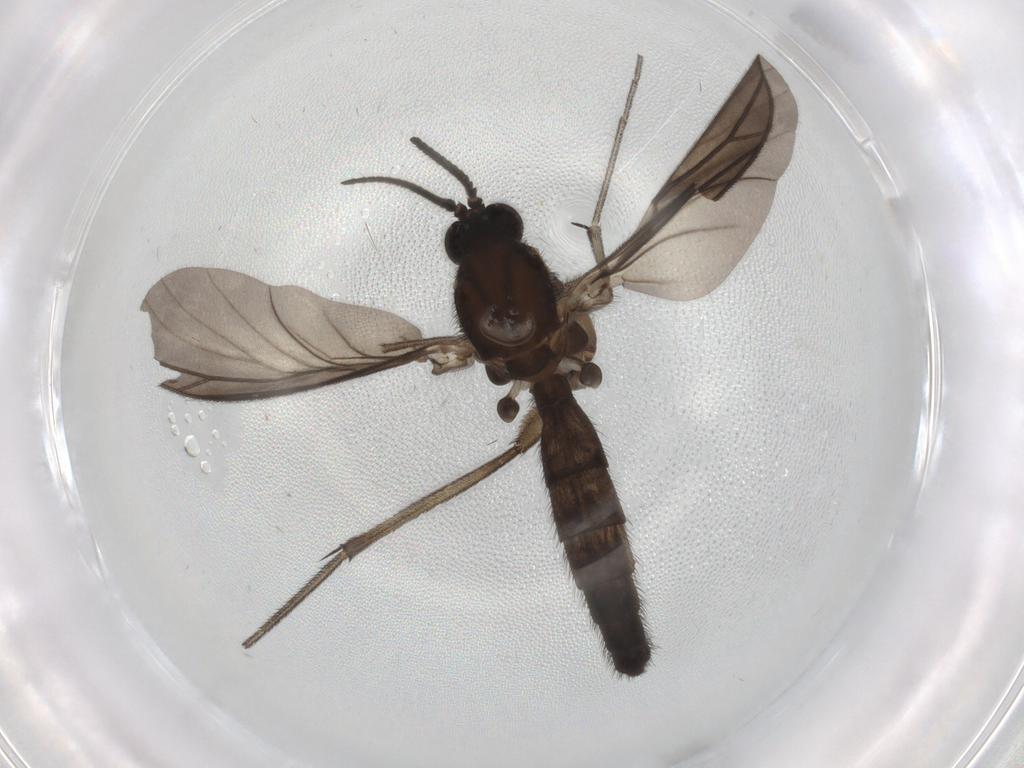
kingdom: Animalia
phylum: Arthropoda
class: Insecta
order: Diptera
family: Keroplatidae
